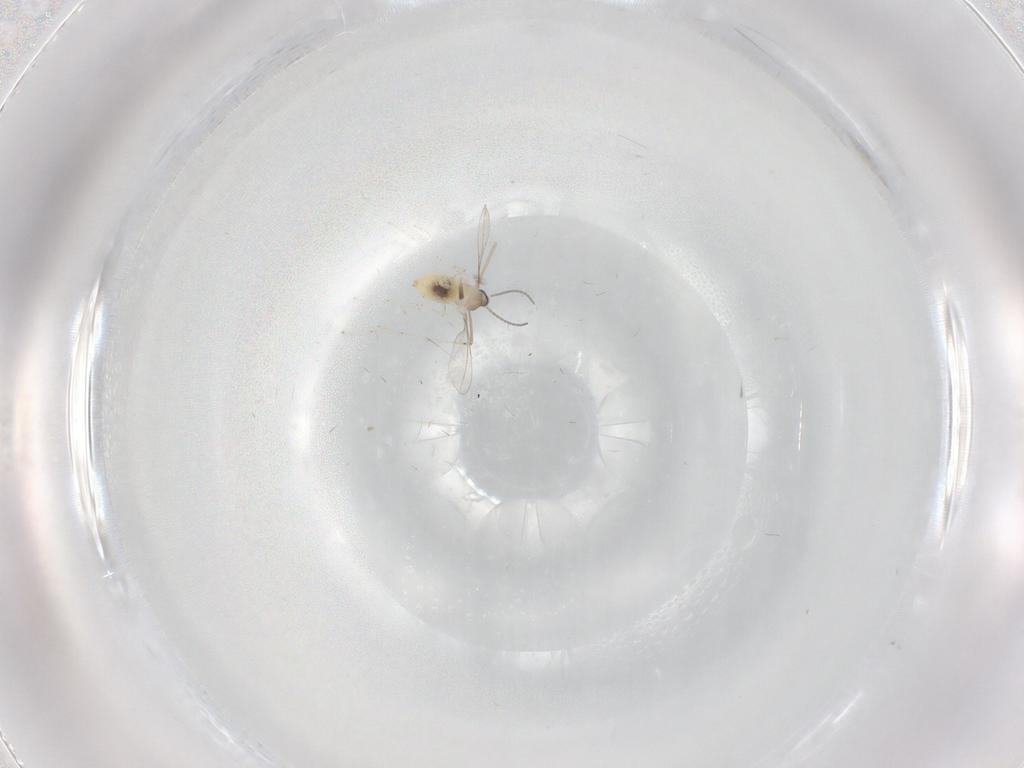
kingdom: Animalia
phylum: Arthropoda
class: Insecta
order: Diptera
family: Cecidomyiidae
